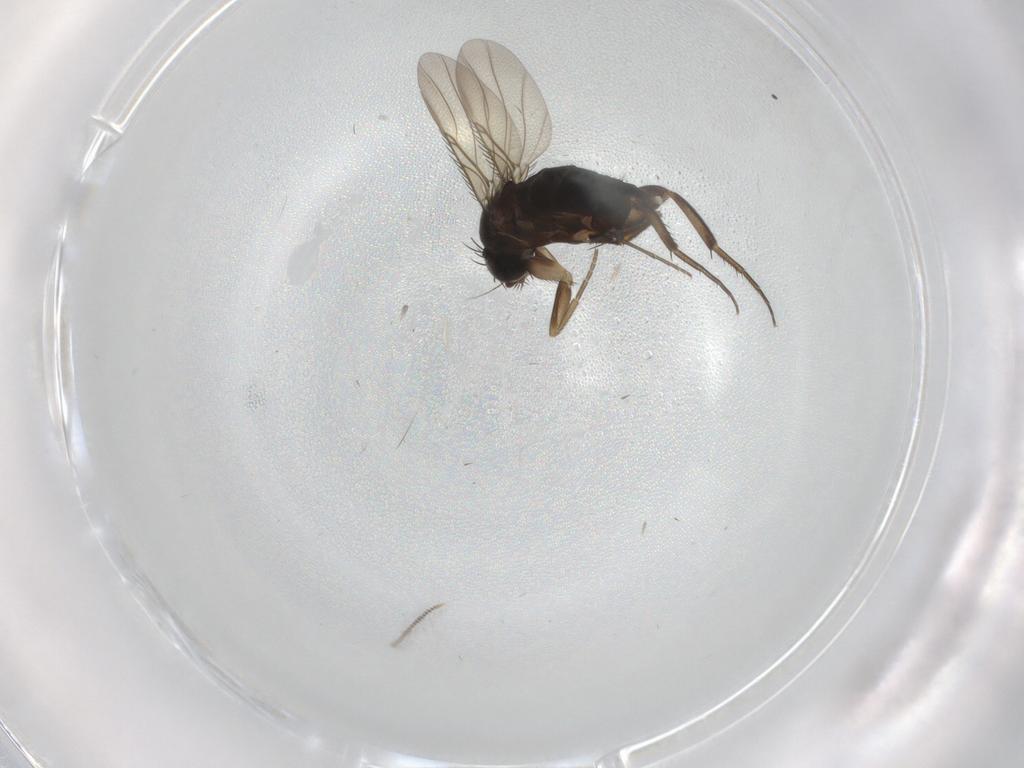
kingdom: Animalia
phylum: Arthropoda
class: Insecta
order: Diptera
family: Phoridae
